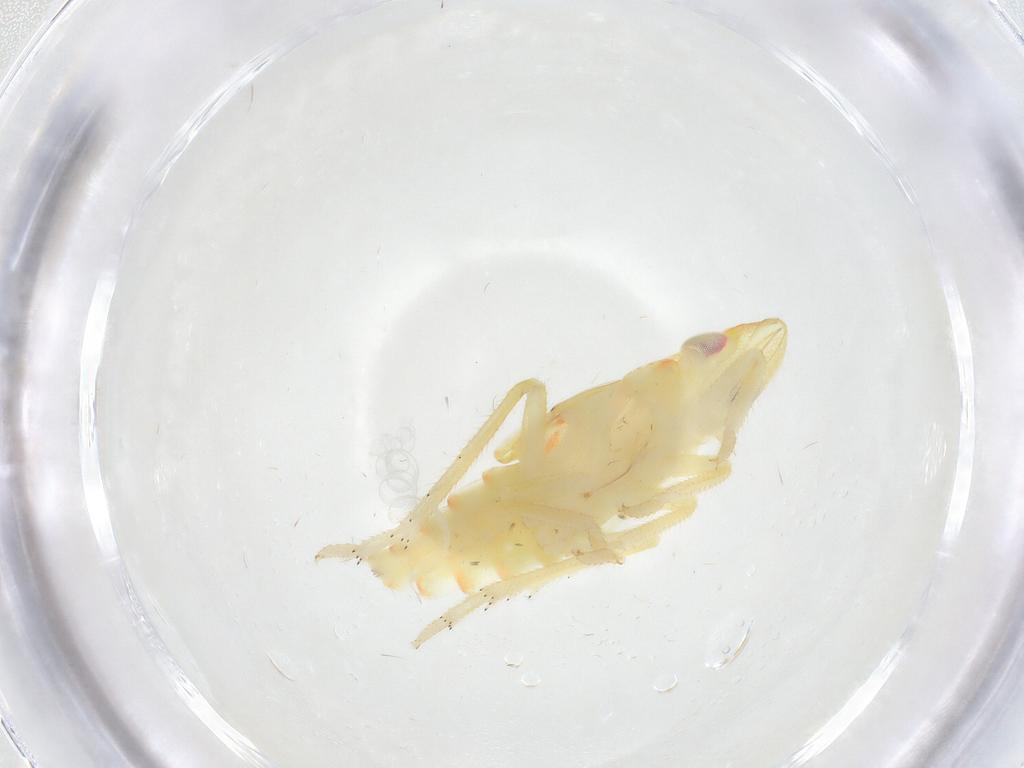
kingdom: Animalia
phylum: Arthropoda
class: Insecta
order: Hemiptera
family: Tropiduchidae
